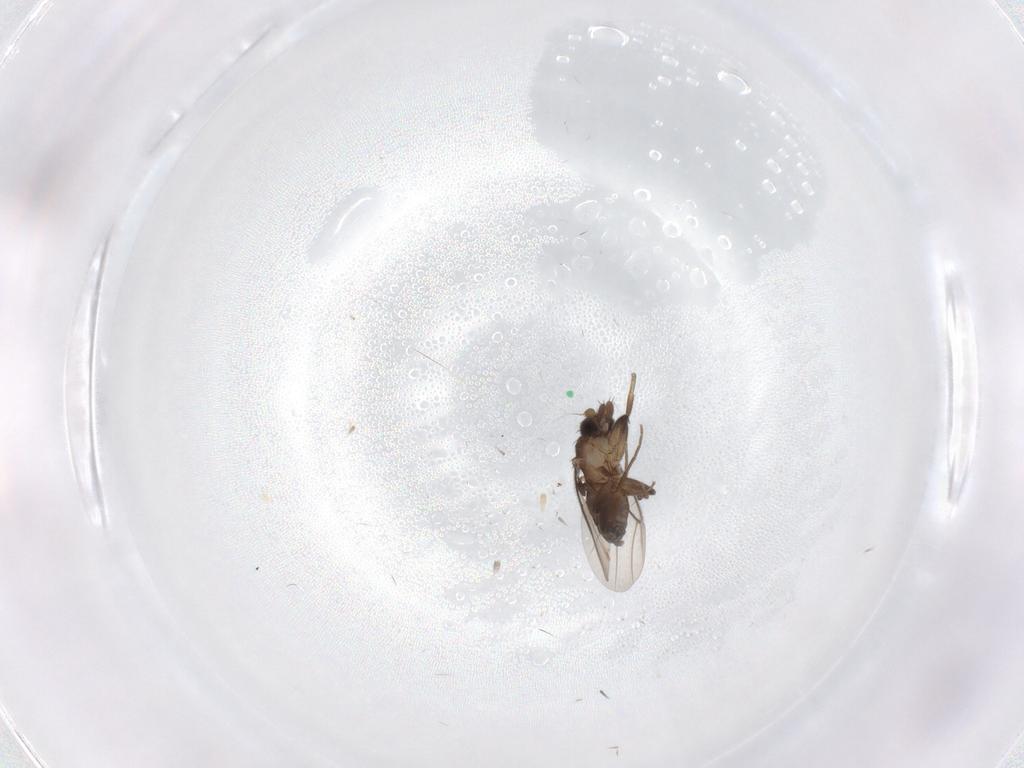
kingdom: Animalia
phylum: Arthropoda
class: Insecta
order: Diptera
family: Phoridae
